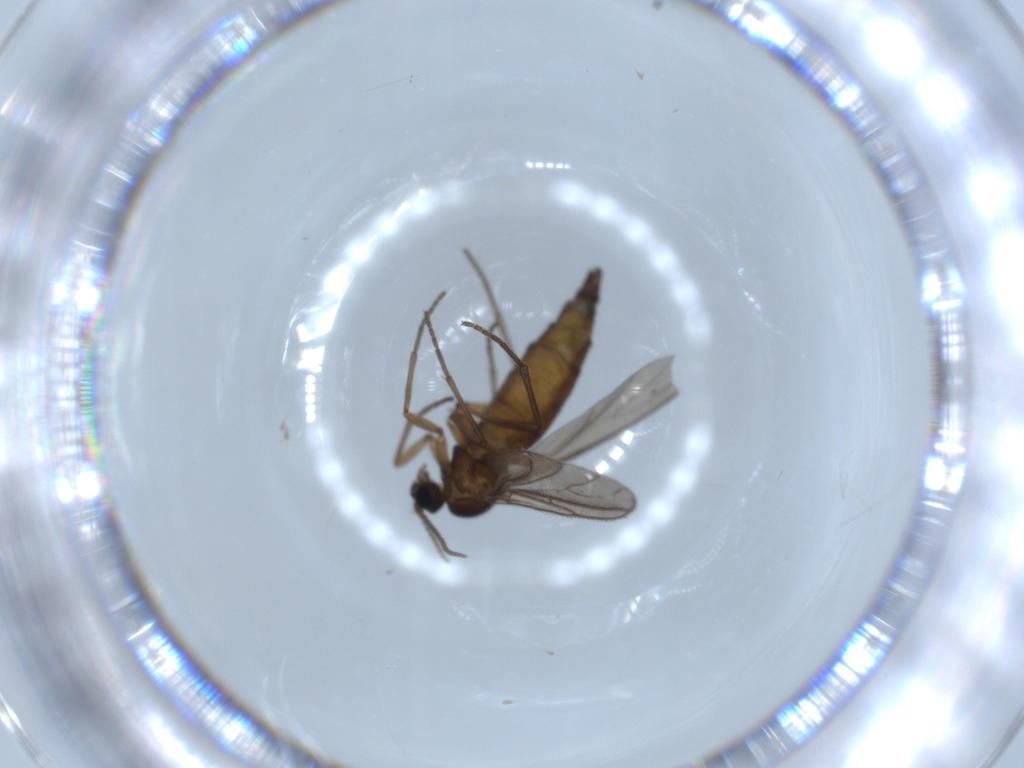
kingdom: Animalia
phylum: Arthropoda
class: Insecta
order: Diptera
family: Sciaridae
